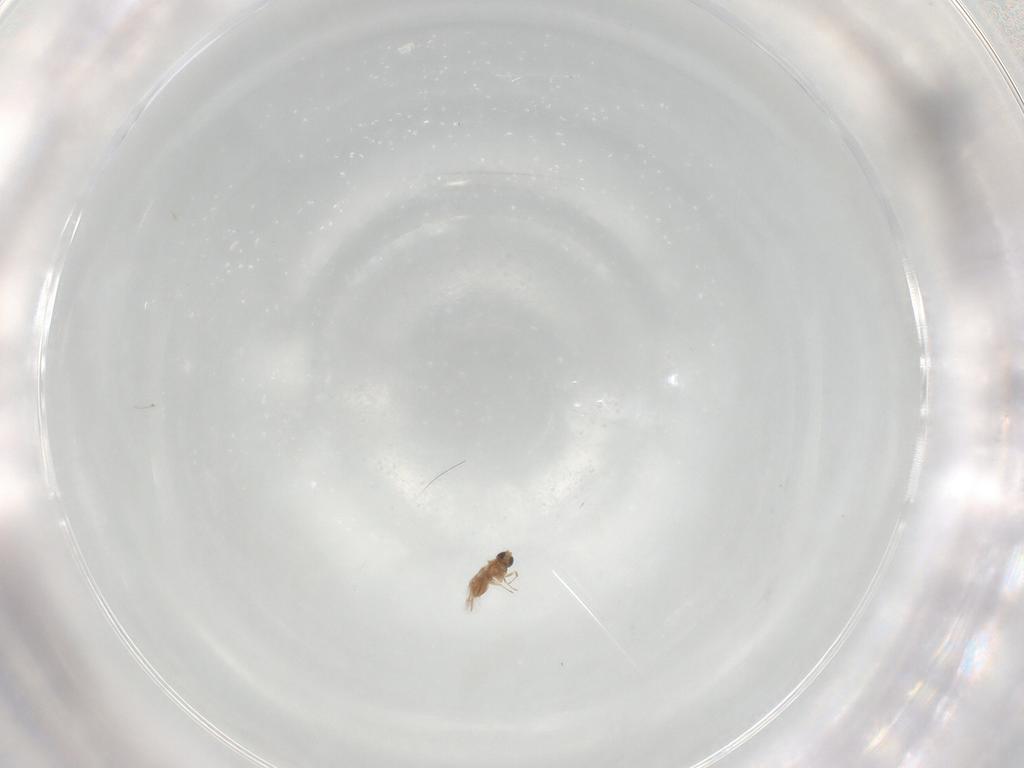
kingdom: Animalia
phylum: Arthropoda
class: Insecta
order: Hymenoptera
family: Trichogrammatidae
